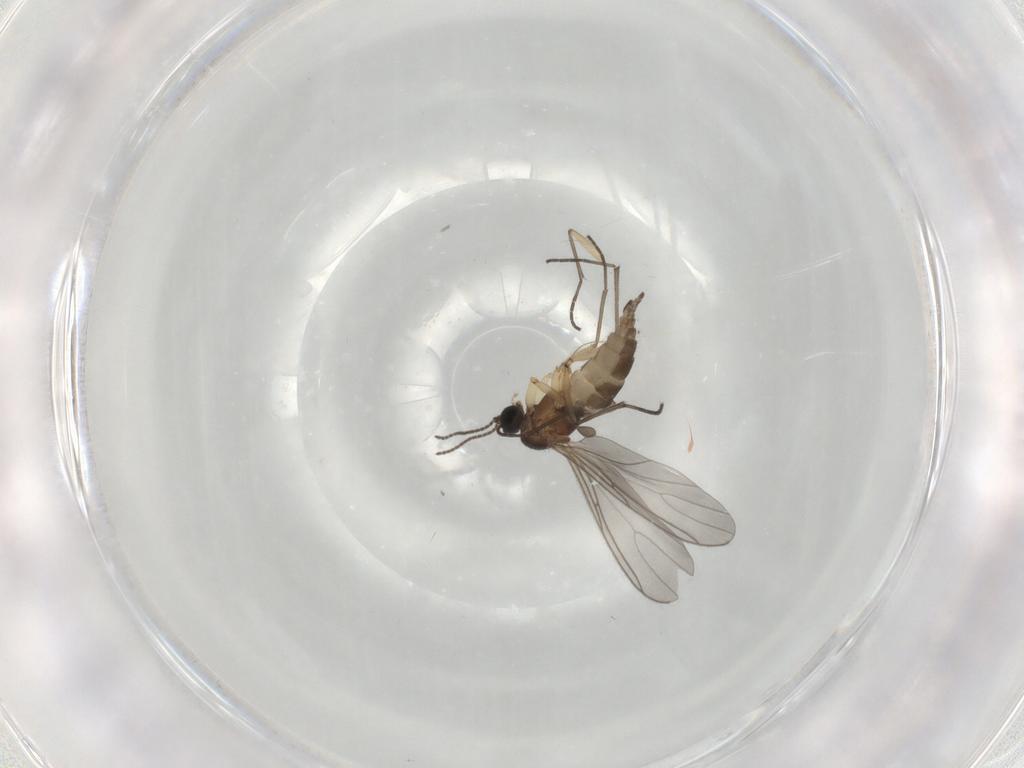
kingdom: Animalia
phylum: Arthropoda
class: Insecta
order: Diptera
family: Sciaridae
